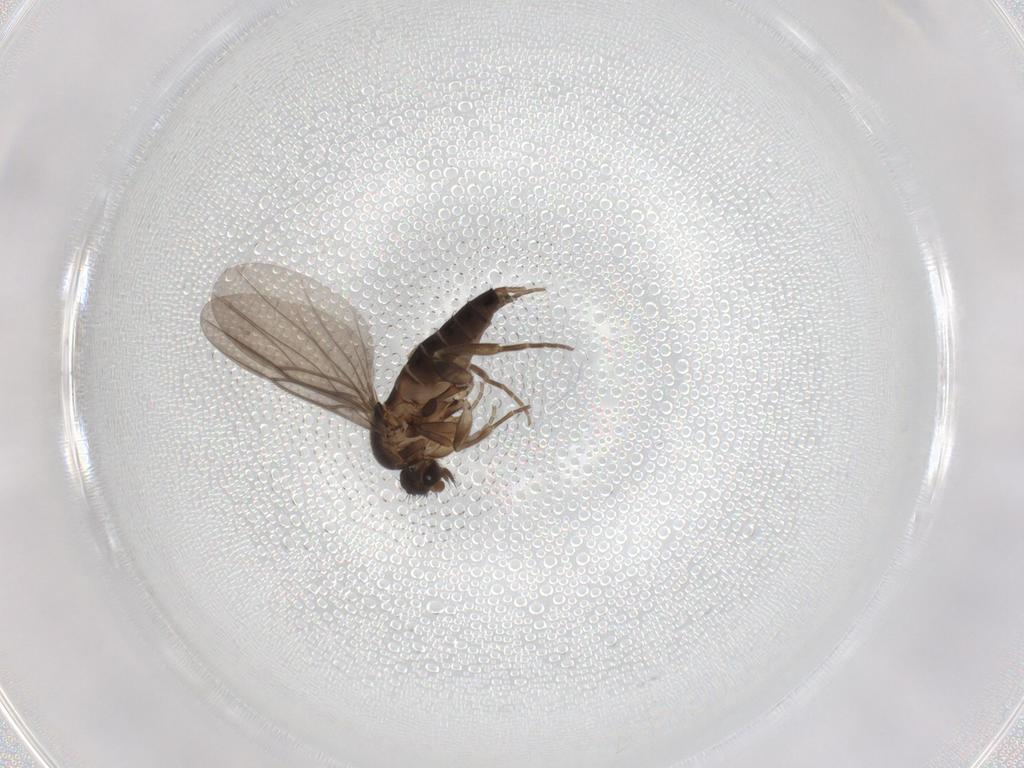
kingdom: Animalia
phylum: Arthropoda
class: Insecta
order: Diptera
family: Phoridae
